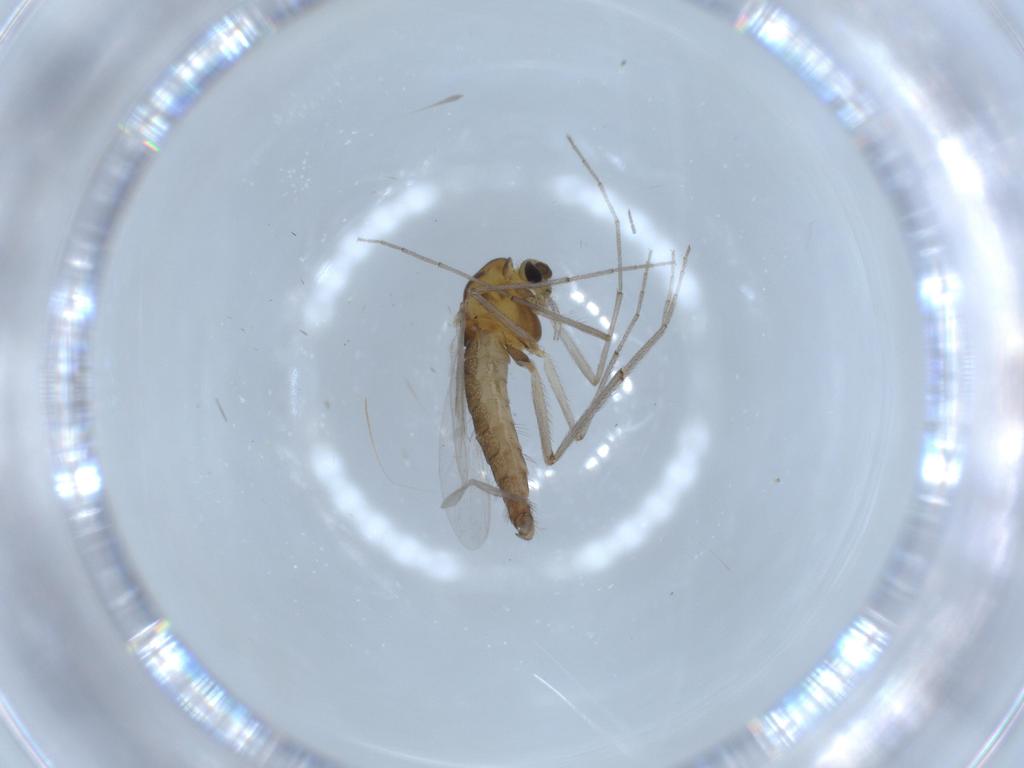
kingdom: Animalia
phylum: Arthropoda
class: Insecta
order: Diptera
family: Chloropidae
